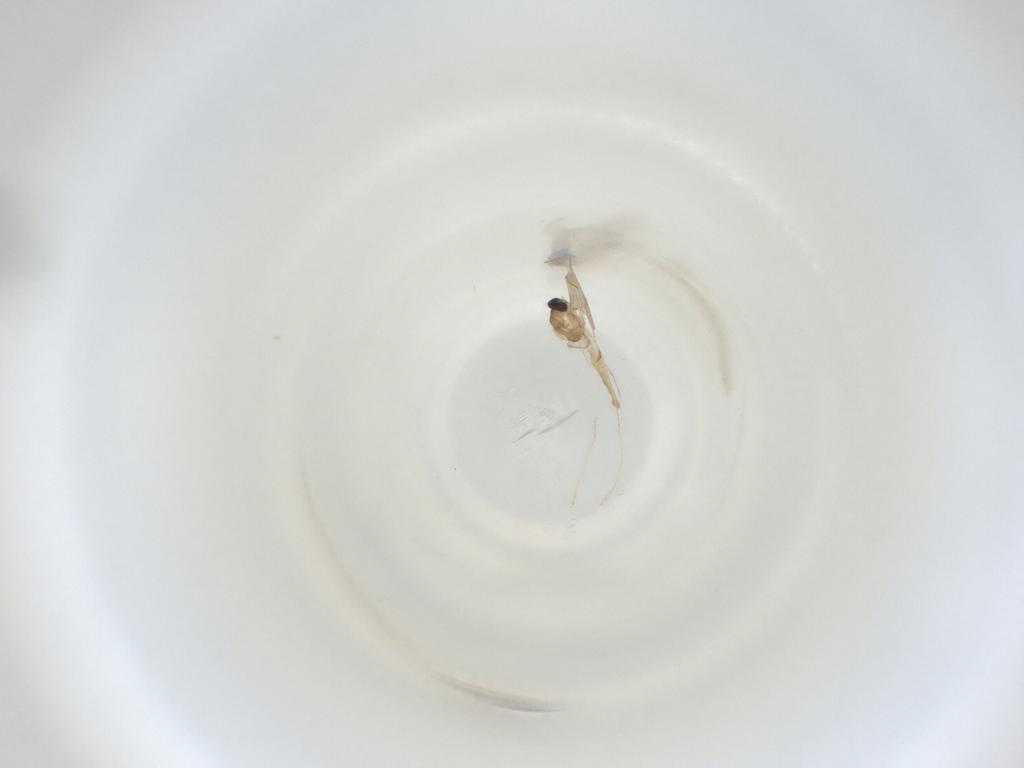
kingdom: Animalia
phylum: Arthropoda
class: Insecta
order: Diptera
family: Cecidomyiidae
